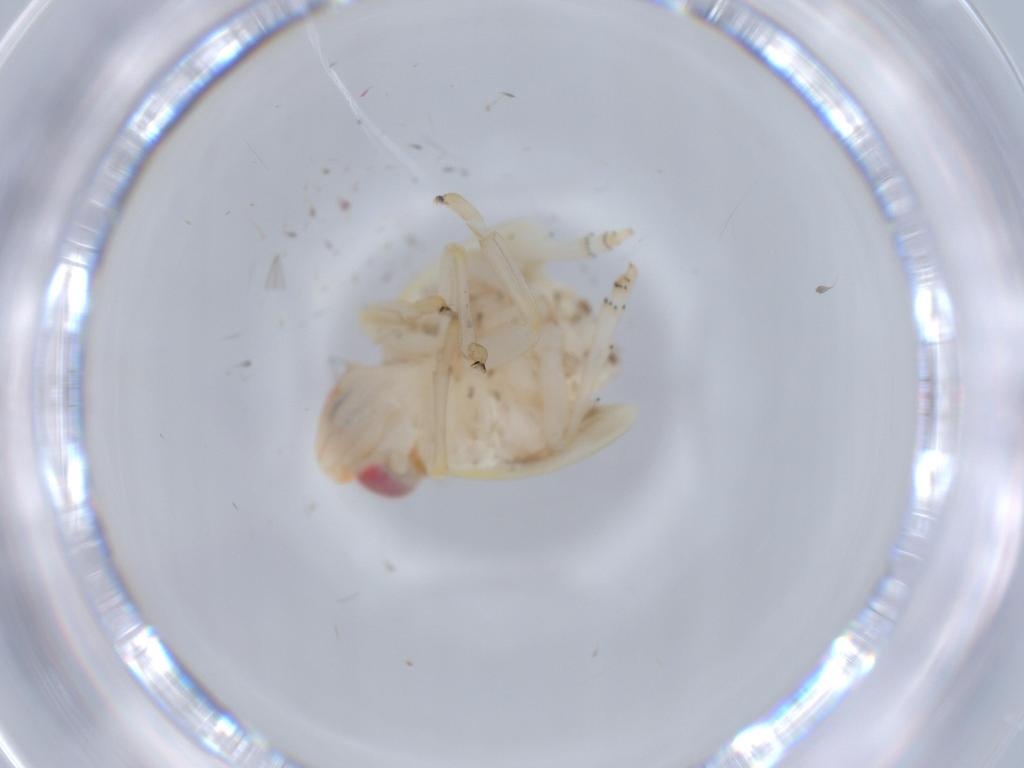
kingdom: Animalia
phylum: Arthropoda
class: Insecta
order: Hemiptera
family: Nogodinidae
